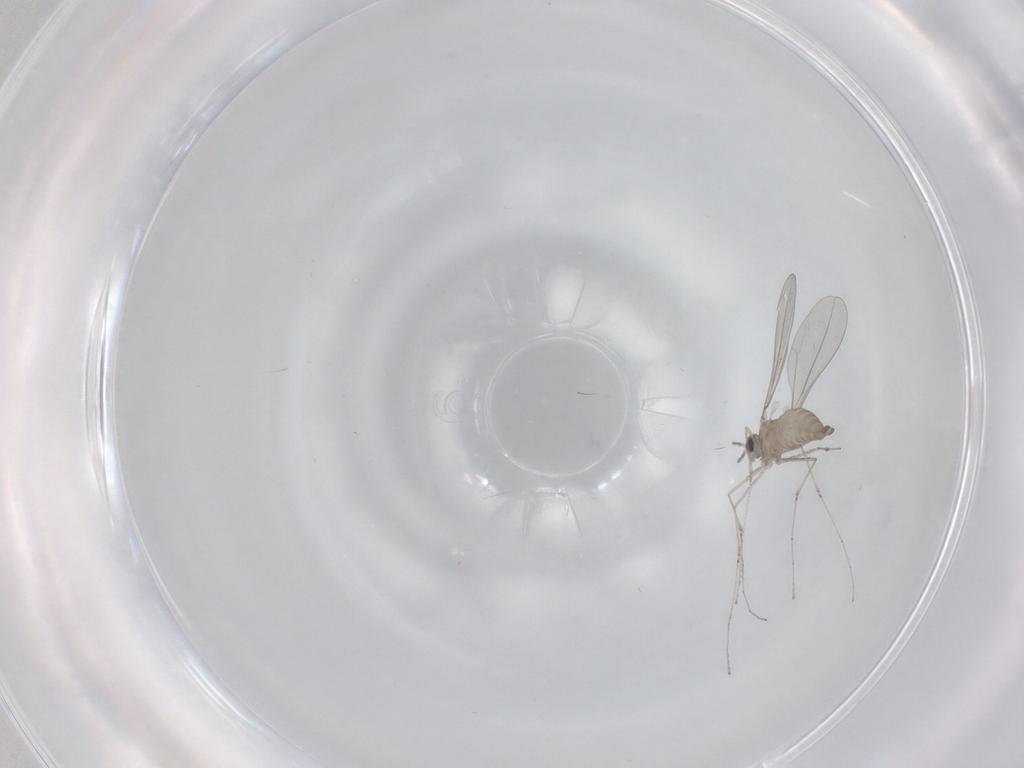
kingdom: Animalia
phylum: Arthropoda
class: Insecta
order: Diptera
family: Cecidomyiidae
